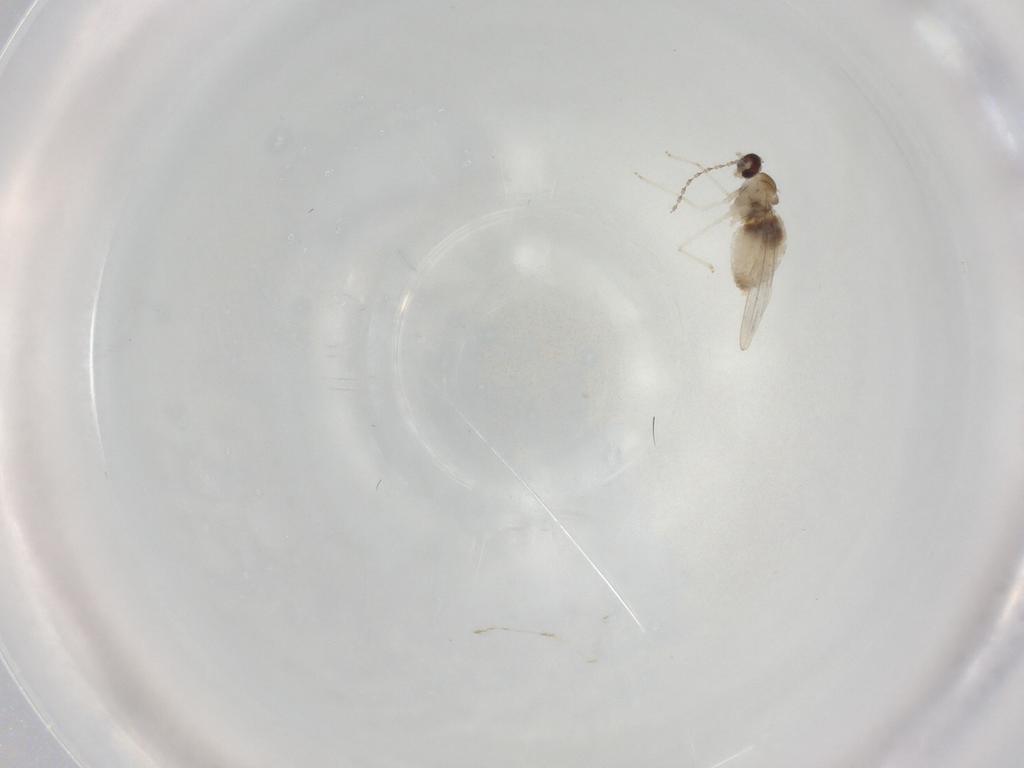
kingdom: Animalia
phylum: Arthropoda
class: Insecta
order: Diptera
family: Cecidomyiidae
